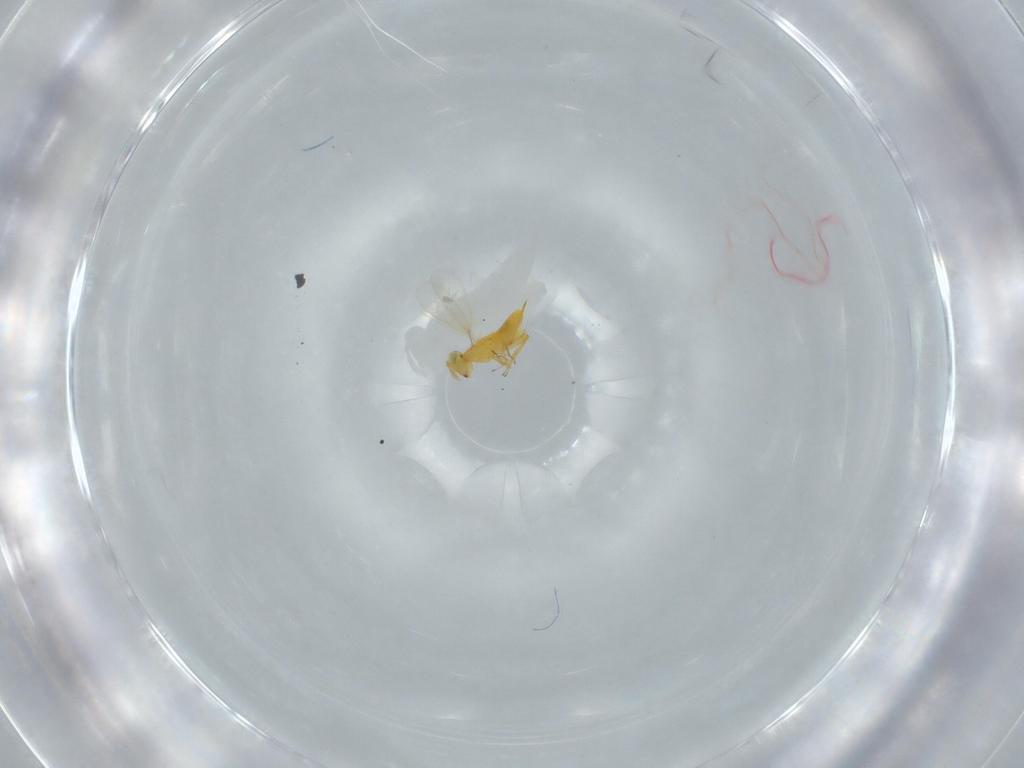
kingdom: Animalia
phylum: Arthropoda
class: Insecta
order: Hymenoptera
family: Aphelinidae
